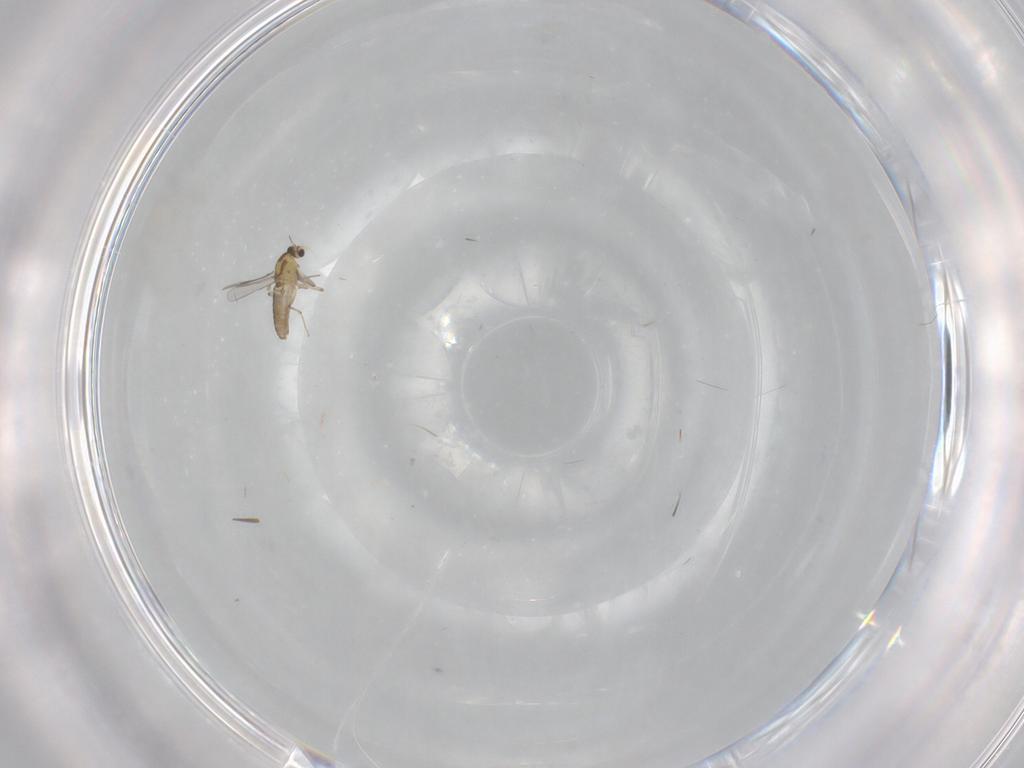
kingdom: Animalia
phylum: Arthropoda
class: Insecta
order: Diptera
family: Chironomidae
